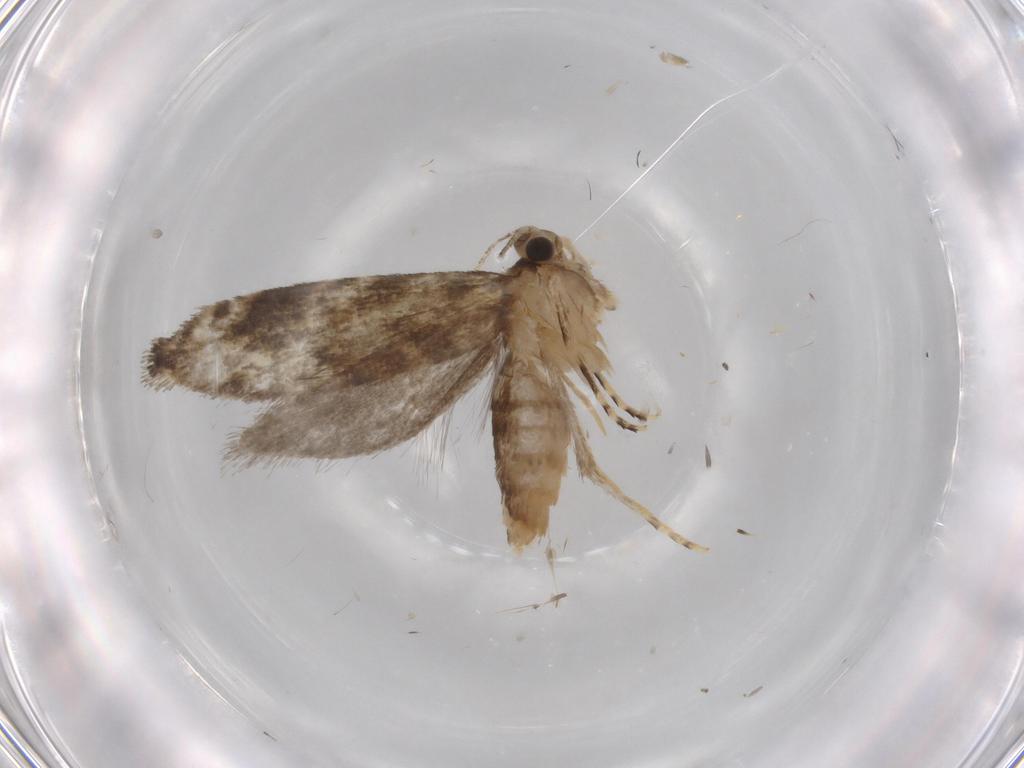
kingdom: Animalia
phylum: Arthropoda
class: Insecta
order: Lepidoptera
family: Tineidae
